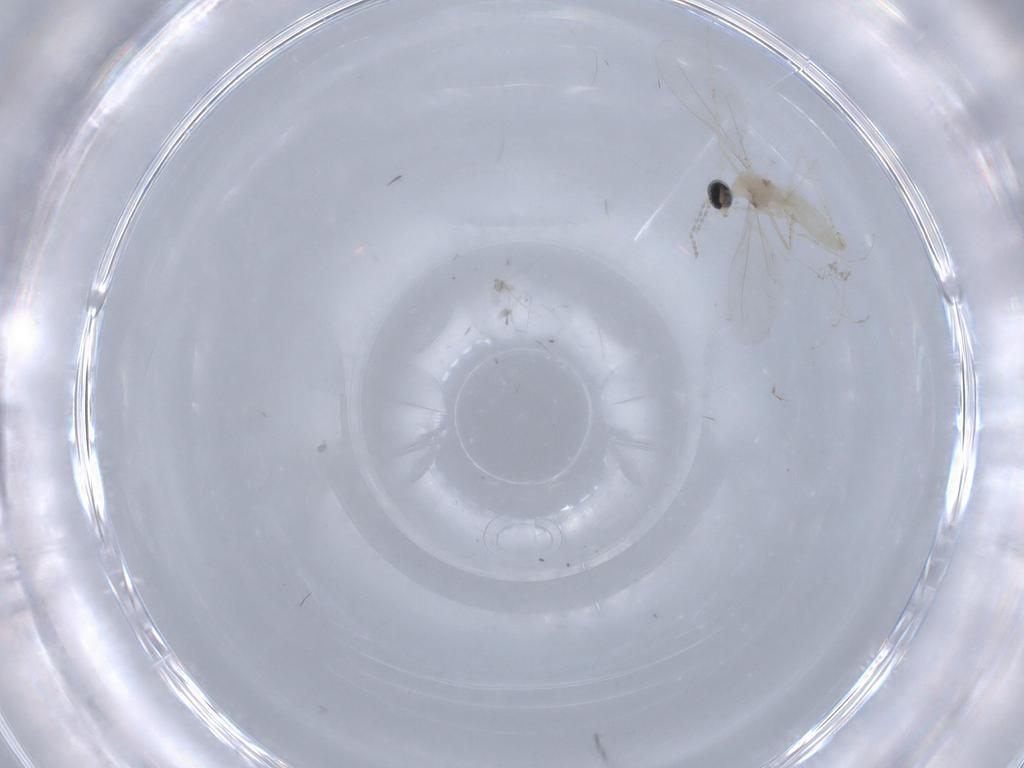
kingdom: Animalia
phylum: Arthropoda
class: Insecta
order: Diptera
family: Cecidomyiidae
